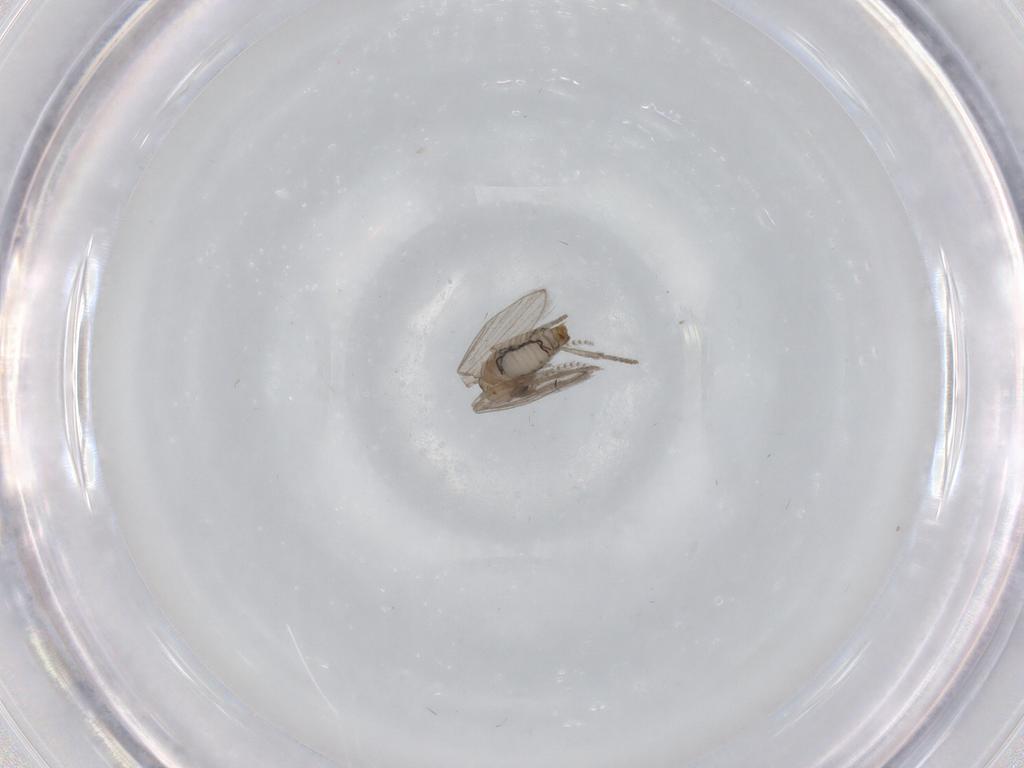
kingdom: Animalia
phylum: Arthropoda
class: Insecta
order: Diptera
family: Psychodidae
